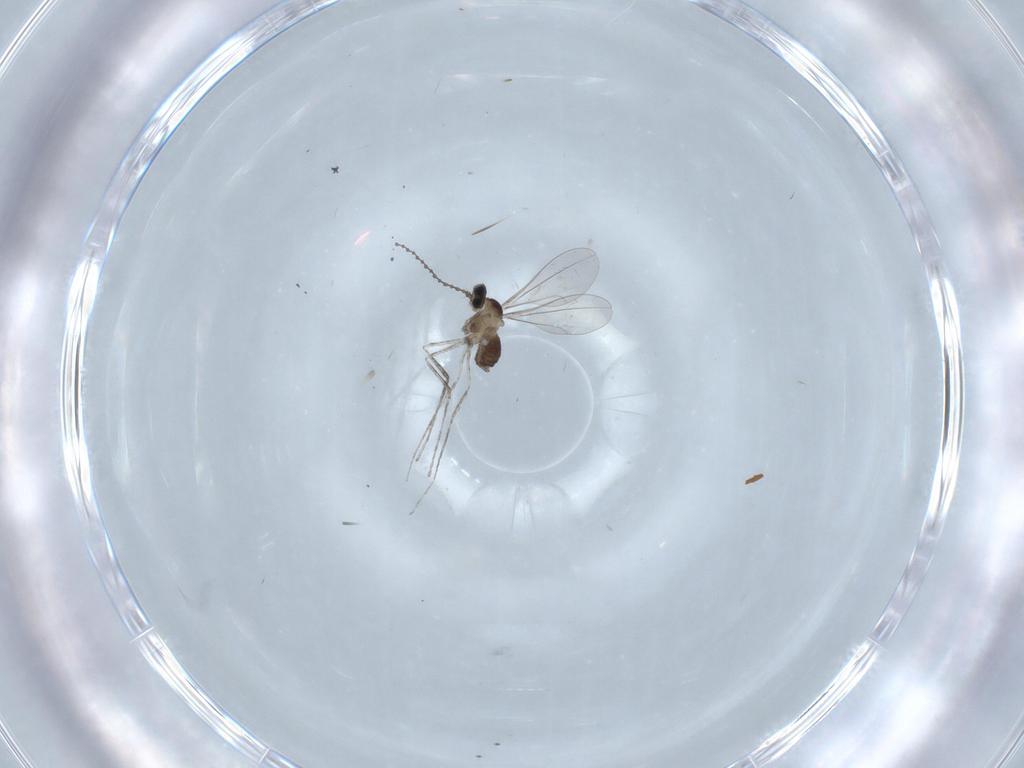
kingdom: Animalia
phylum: Arthropoda
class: Insecta
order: Diptera
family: Cecidomyiidae
